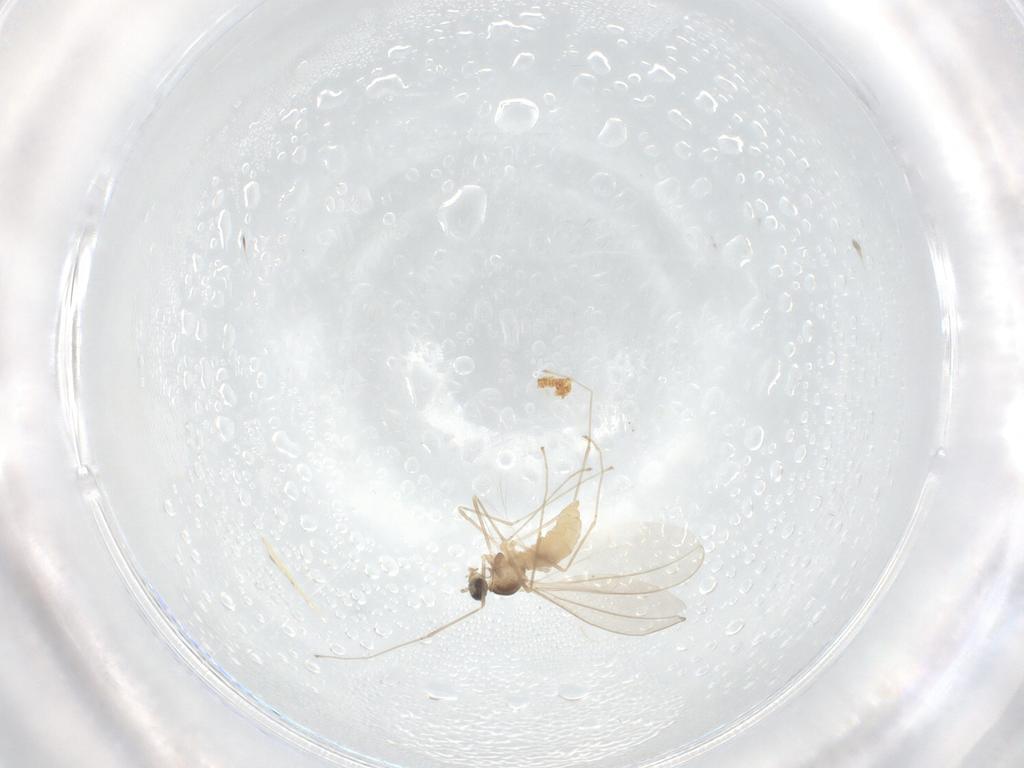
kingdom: Animalia
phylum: Arthropoda
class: Insecta
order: Diptera
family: Cecidomyiidae
